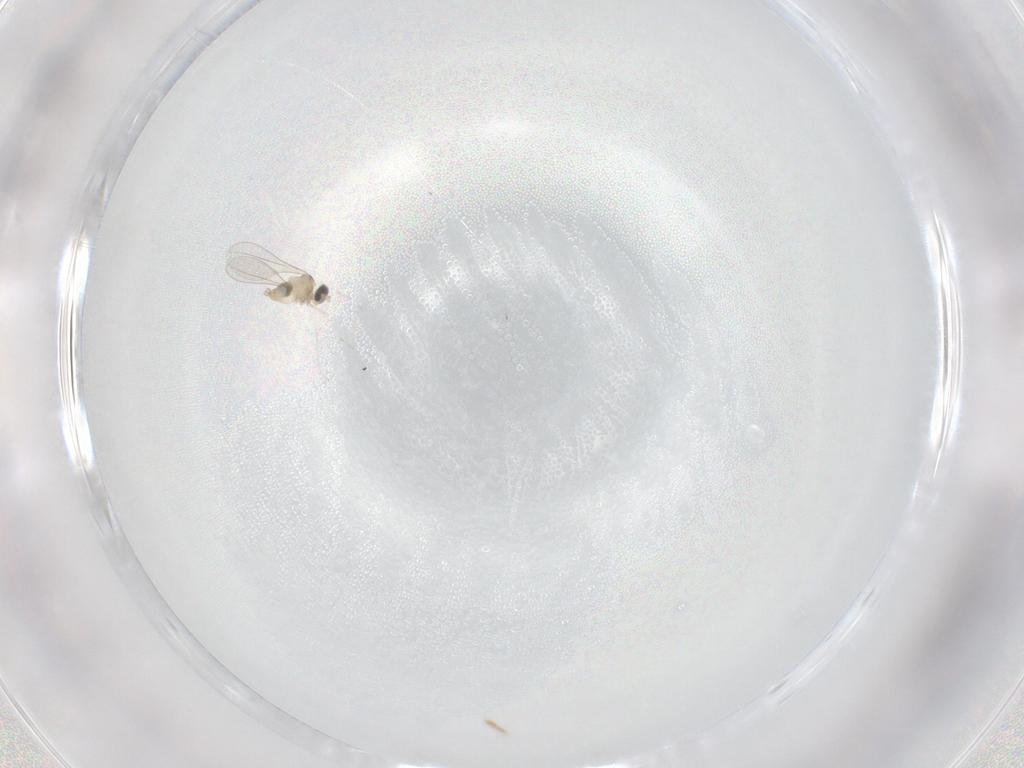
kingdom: Animalia
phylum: Arthropoda
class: Insecta
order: Diptera
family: Cecidomyiidae
